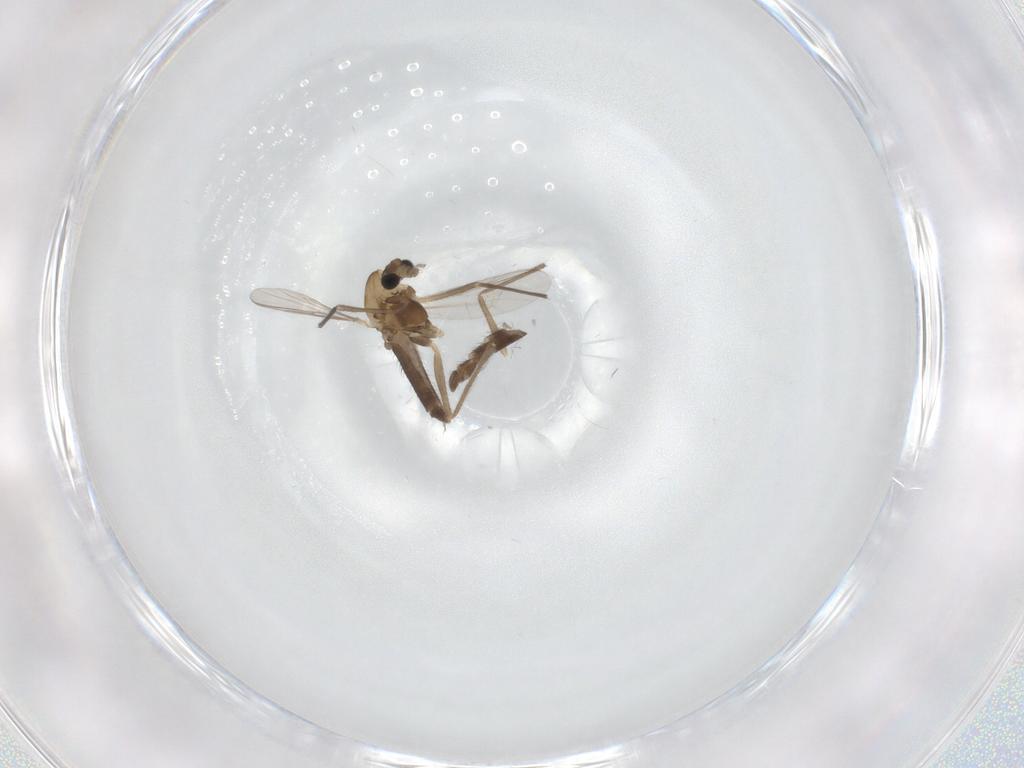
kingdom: Animalia
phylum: Arthropoda
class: Insecta
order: Diptera
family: Chironomidae
